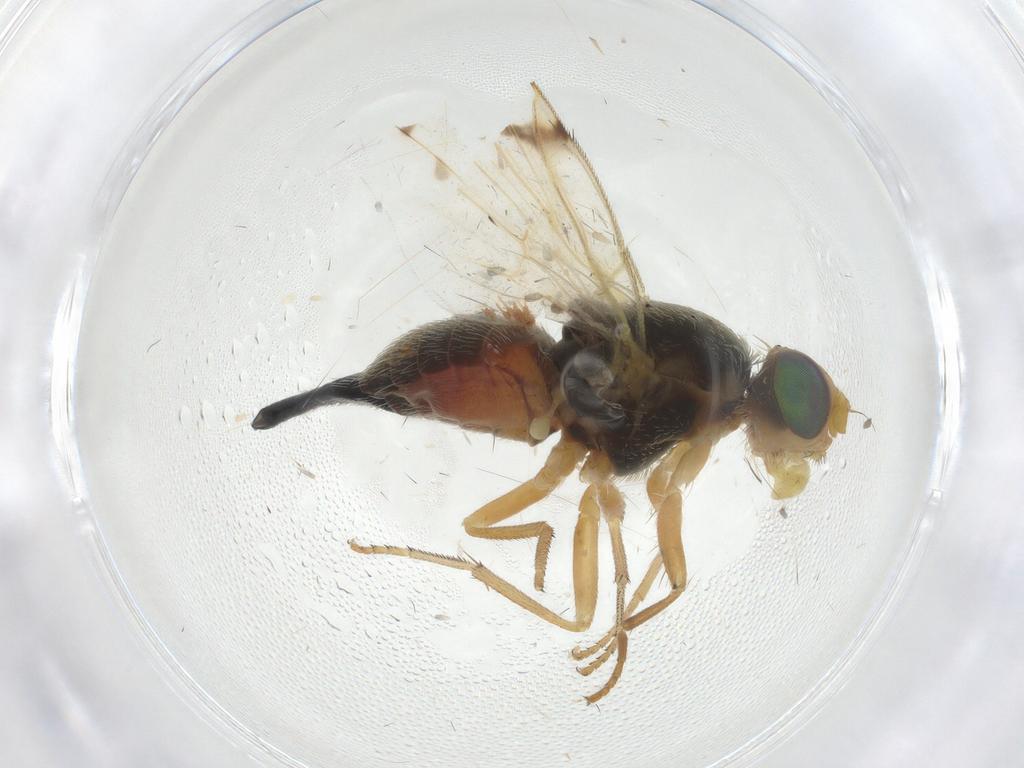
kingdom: Animalia
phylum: Arthropoda
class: Insecta
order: Diptera
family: Tephritidae
